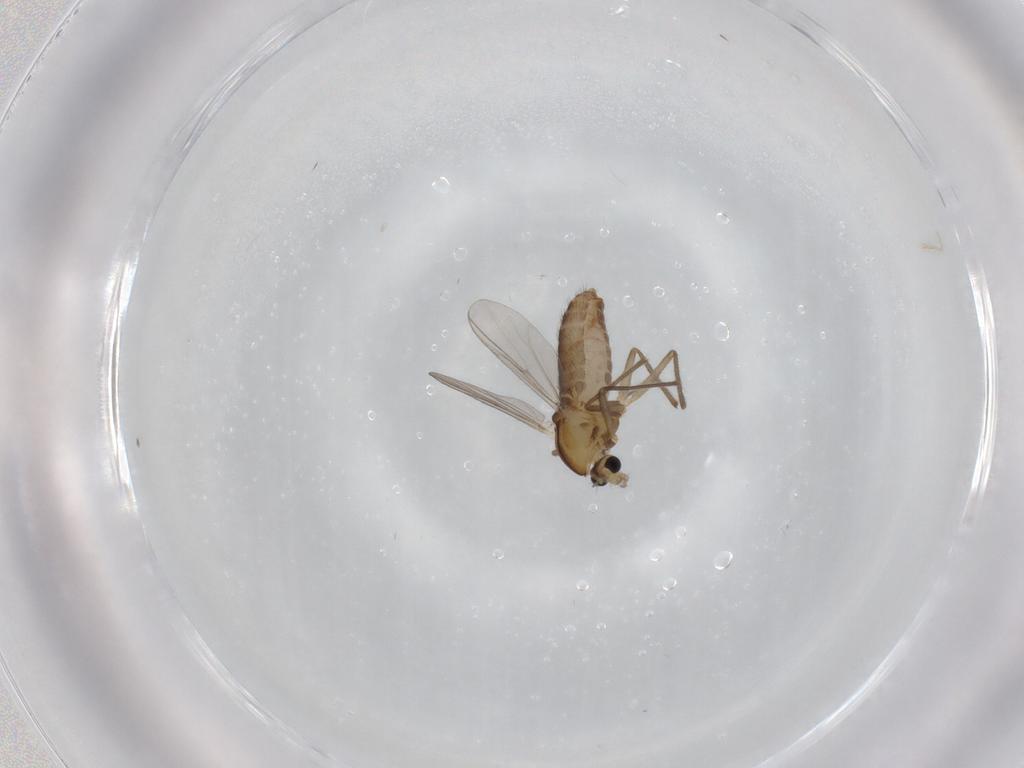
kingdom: Animalia
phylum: Arthropoda
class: Insecta
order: Diptera
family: Chironomidae
